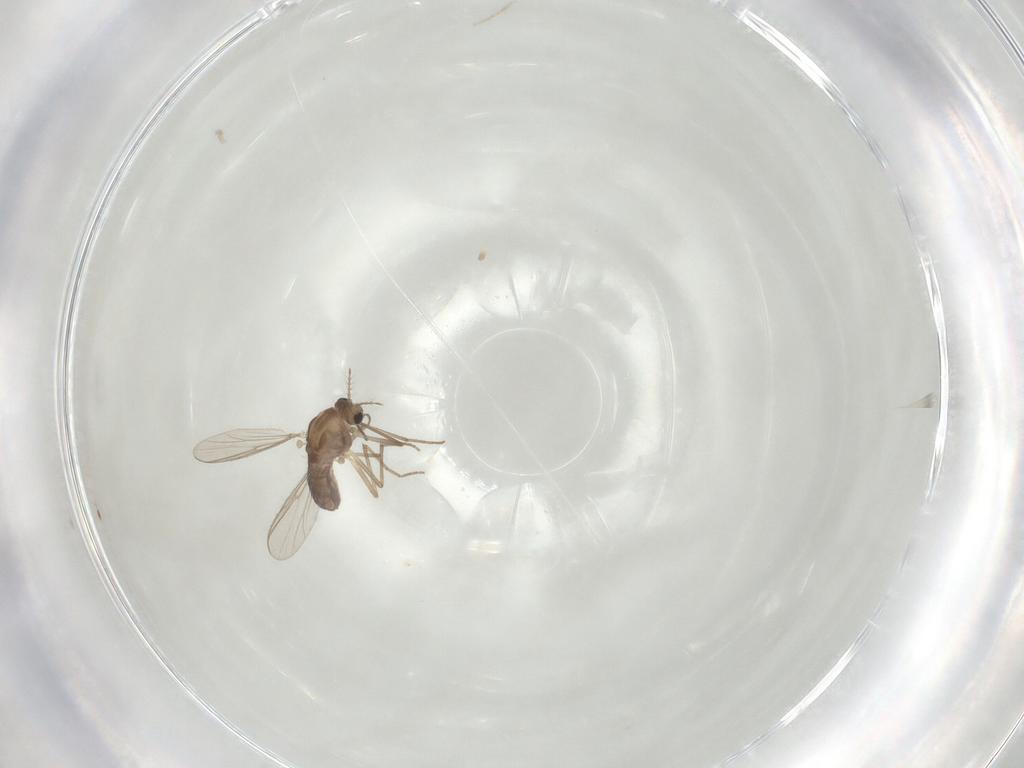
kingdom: Animalia
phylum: Arthropoda
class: Insecta
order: Diptera
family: Chironomidae
